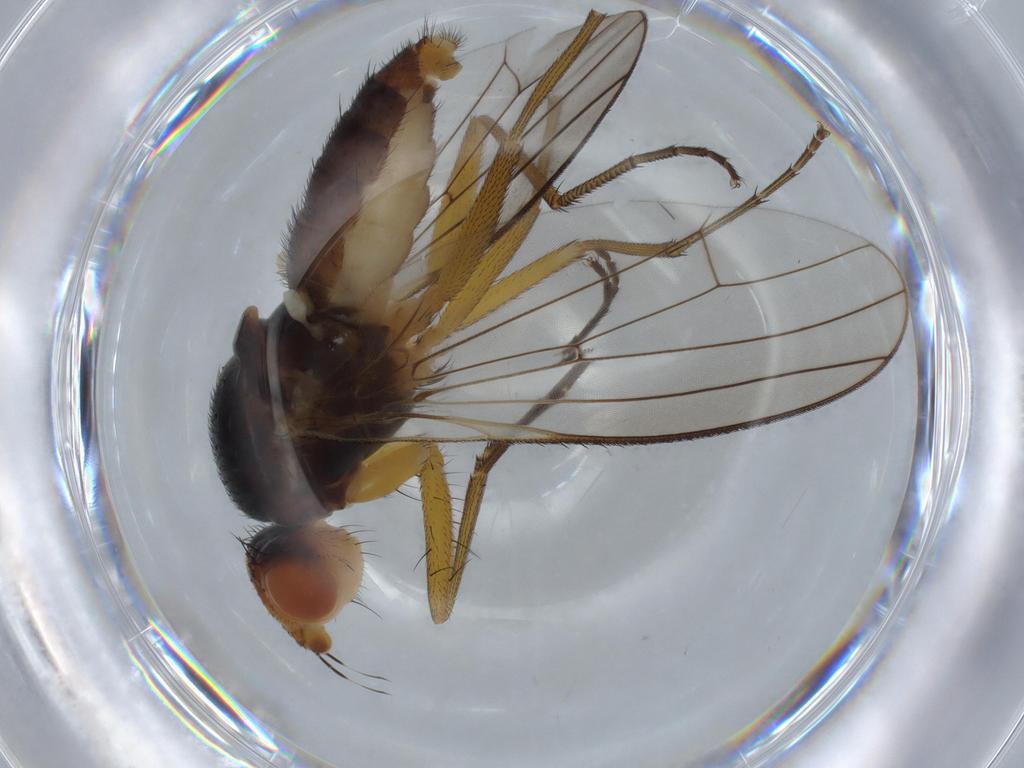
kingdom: Animalia
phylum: Arthropoda
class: Insecta
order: Diptera
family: Heleomyzidae
